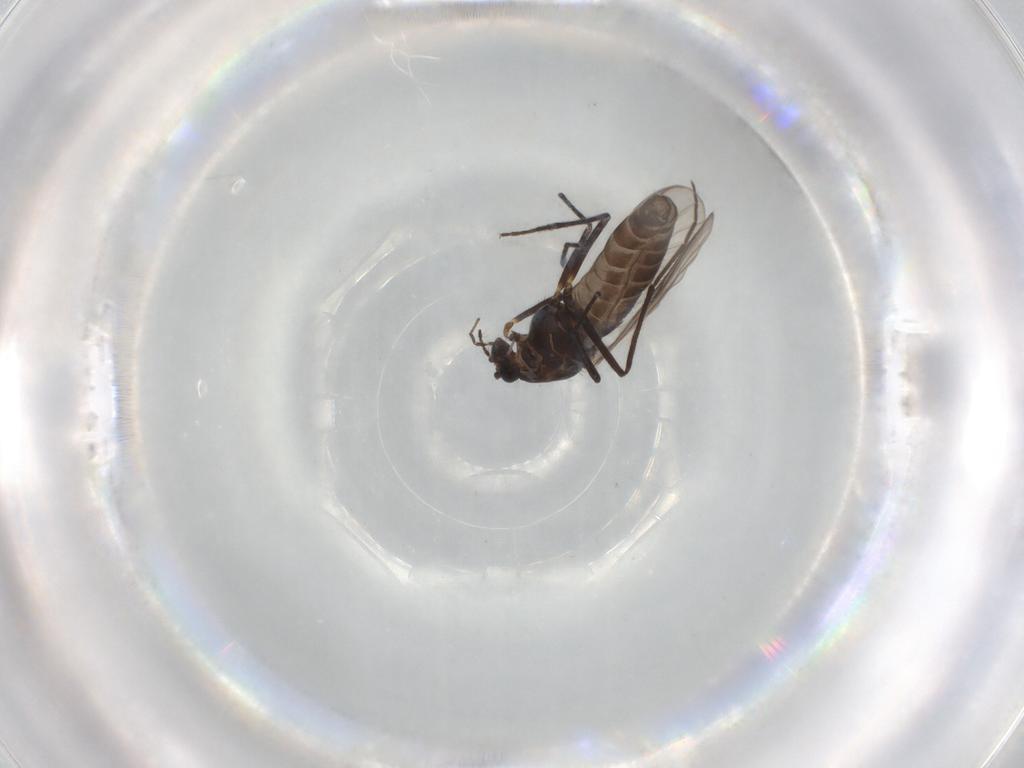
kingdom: Animalia
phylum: Arthropoda
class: Insecta
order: Diptera
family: Chironomidae
